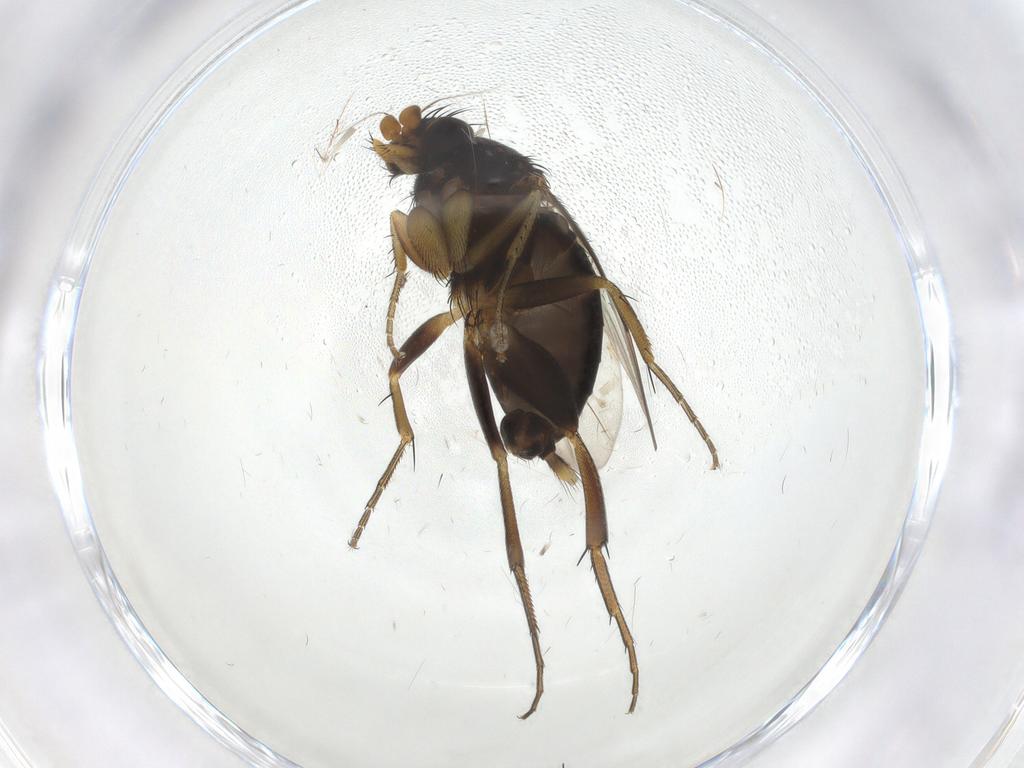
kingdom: Animalia
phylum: Arthropoda
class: Insecta
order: Diptera
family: Phoridae
